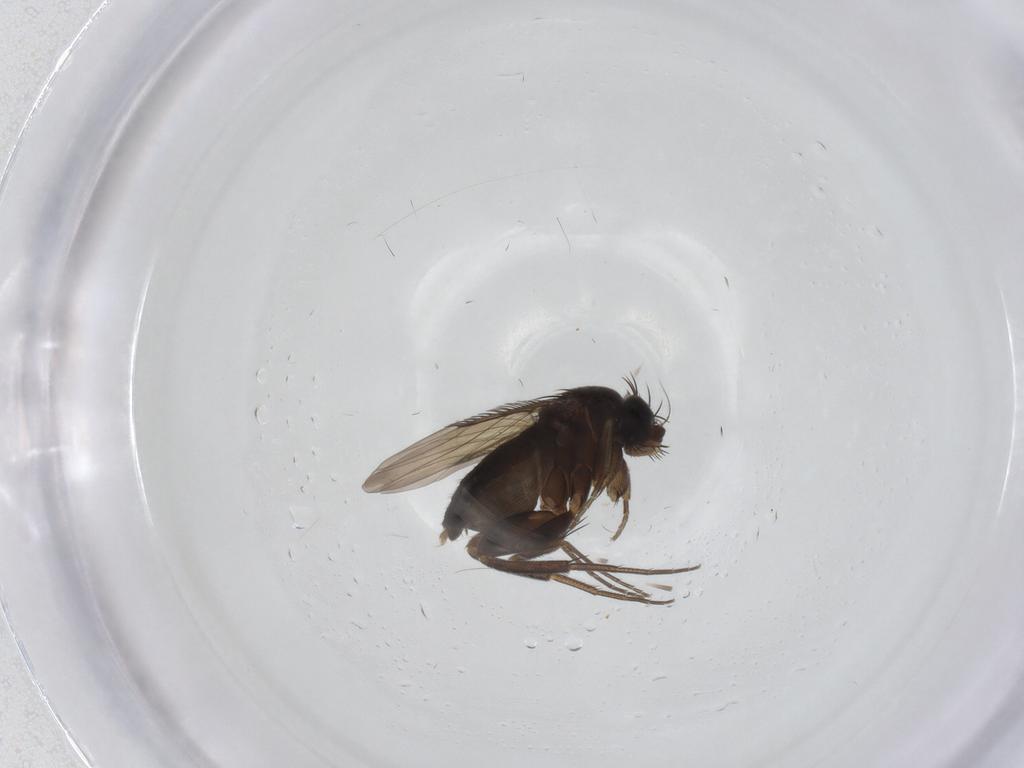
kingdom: Animalia
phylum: Arthropoda
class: Insecta
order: Diptera
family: Phoridae
